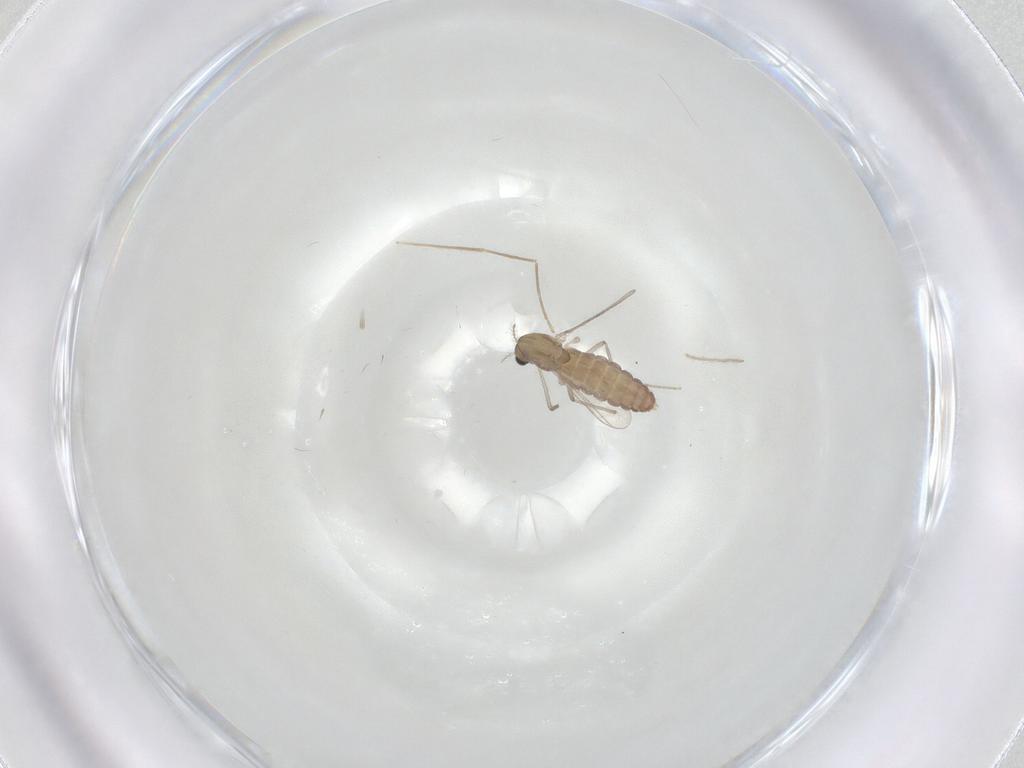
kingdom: Animalia
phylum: Arthropoda
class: Insecta
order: Diptera
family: Chironomidae
